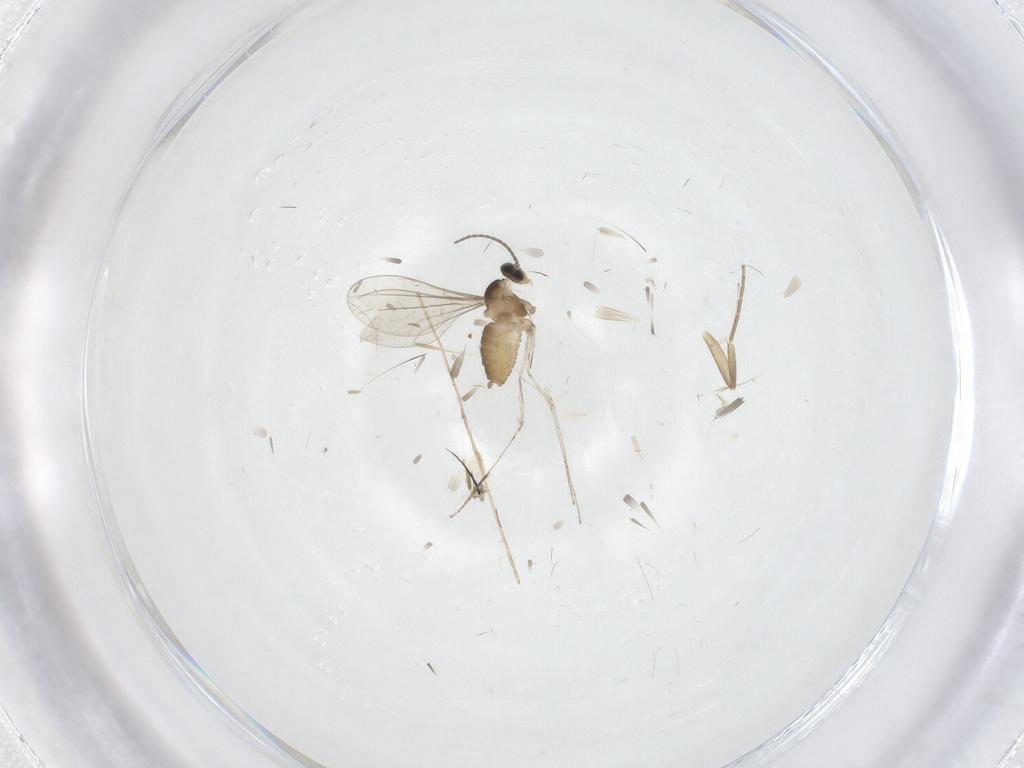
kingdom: Animalia
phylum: Arthropoda
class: Insecta
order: Diptera
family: Cecidomyiidae
